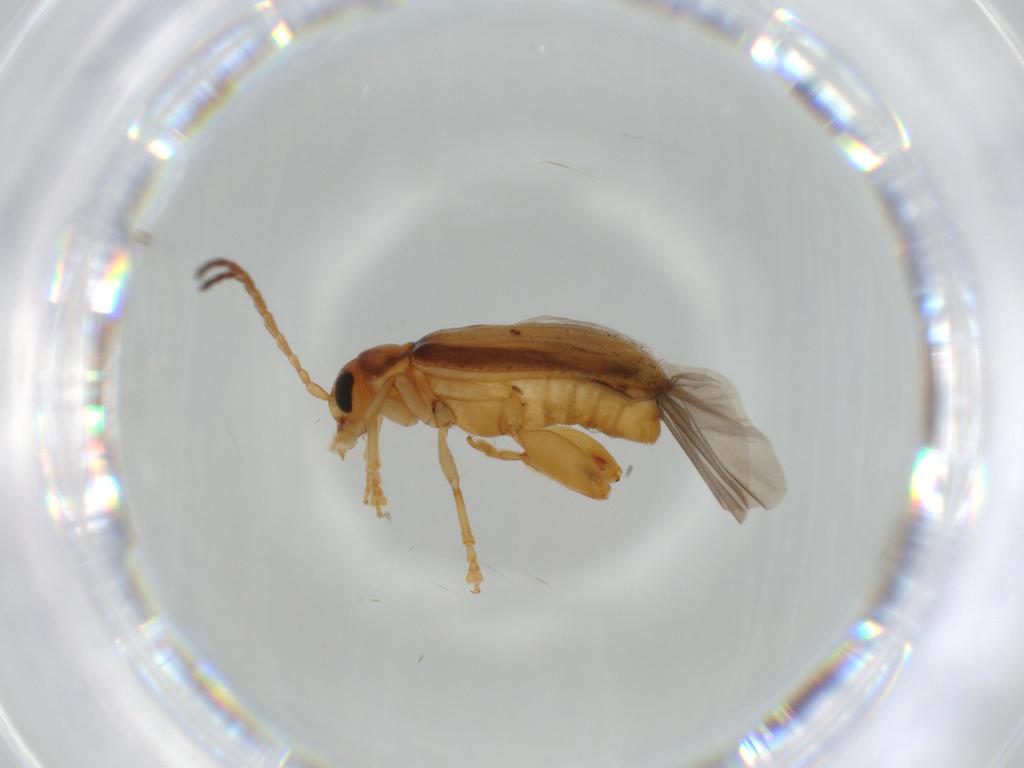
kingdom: Animalia
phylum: Arthropoda
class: Insecta
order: Coleoptera
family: Chrysomelidae
